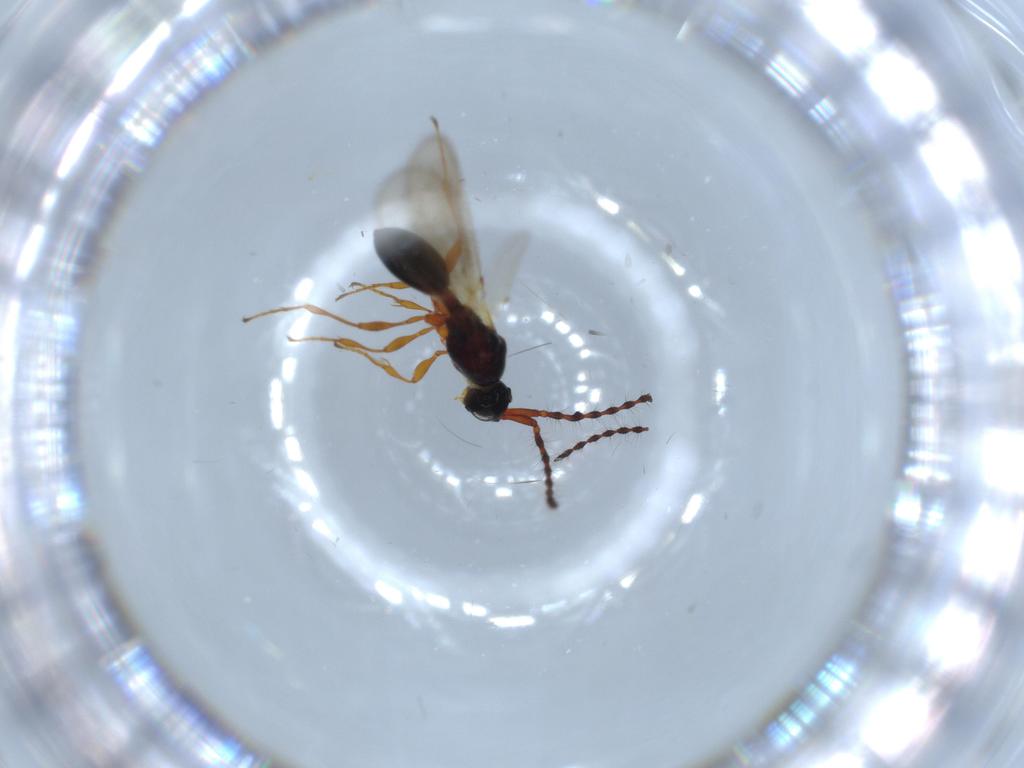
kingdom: Animalia
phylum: Arthropoda
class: Insecta
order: Hymenoptera
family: Diapriidae
